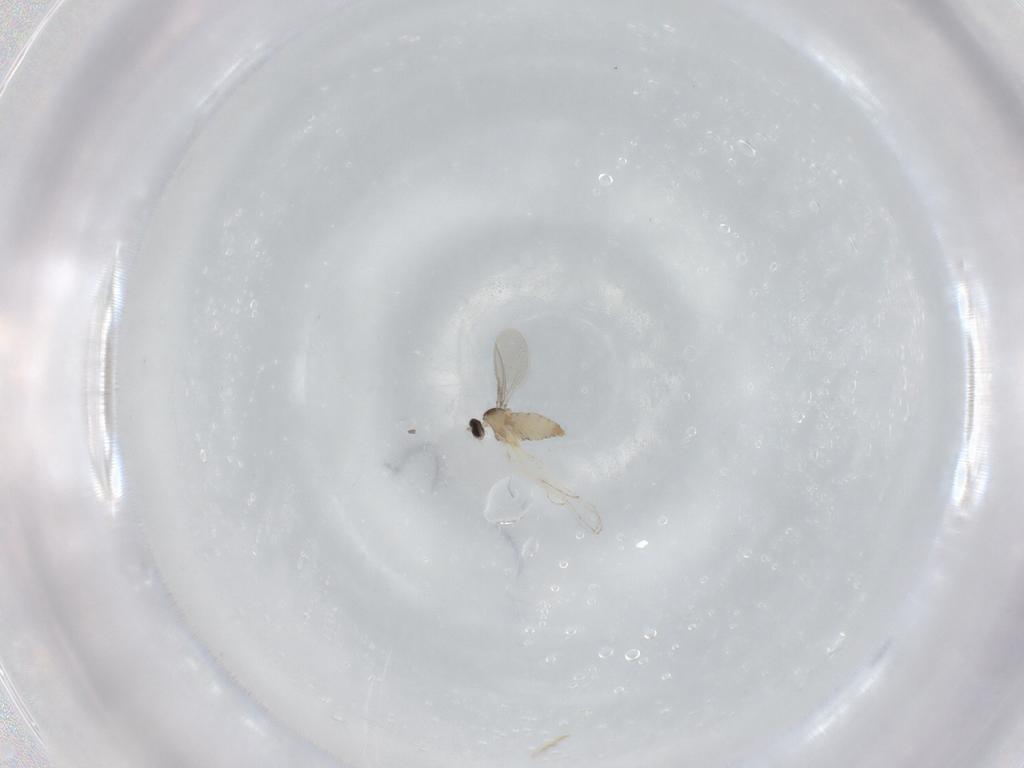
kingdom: Animalia
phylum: Arthropoda
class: Insecta
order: Diptera
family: Cecidomyiidae
